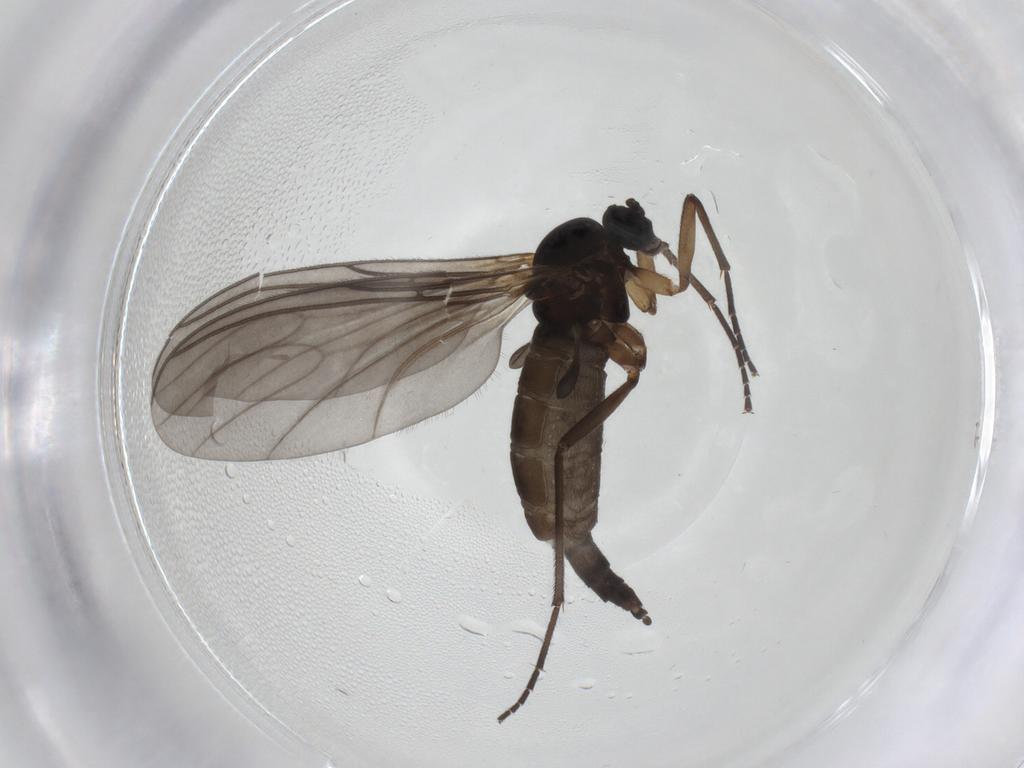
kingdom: Animalia
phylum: Arthropoda
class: Insecta
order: Diptera
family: Sciaridae
